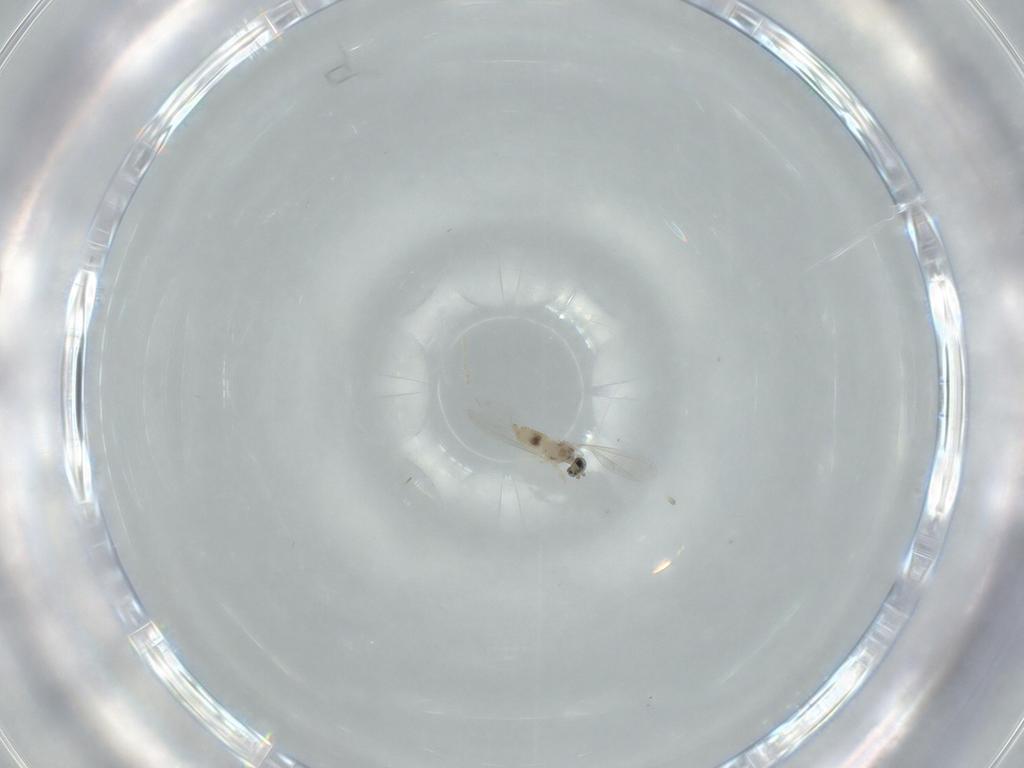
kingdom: Animalia
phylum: Arthropoda
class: Insecta
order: Diptera
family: Cecidomyiidae
